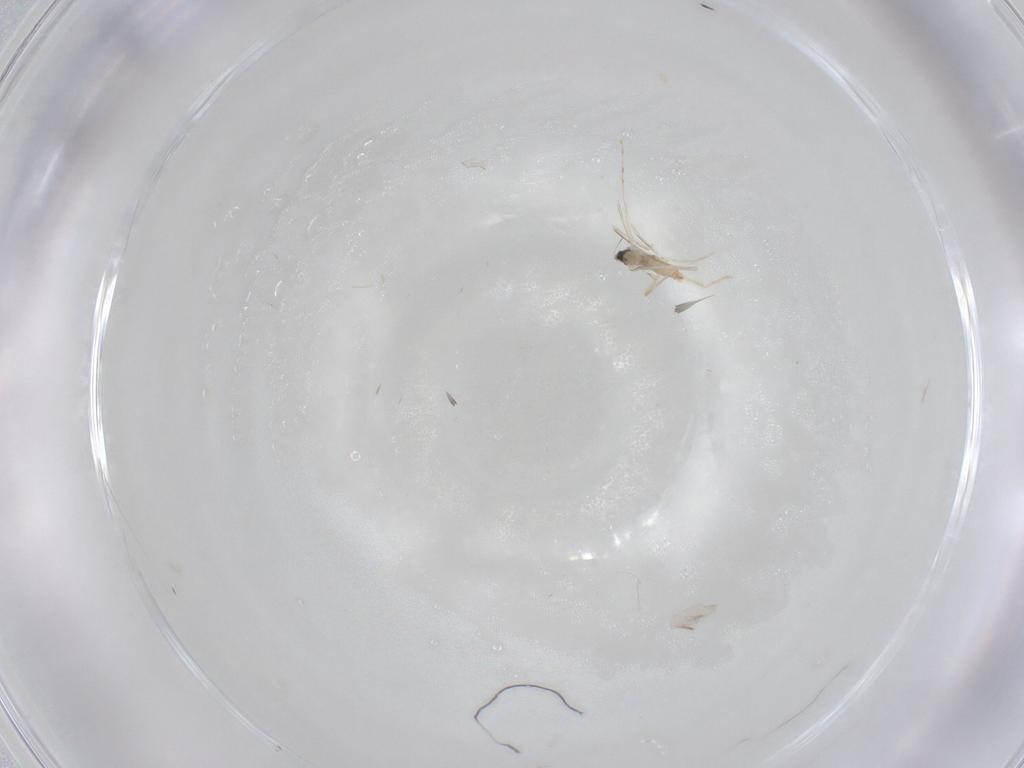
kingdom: Animalia
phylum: Arthropoda
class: Insecta
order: Diptera
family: Cecidomyiidae
